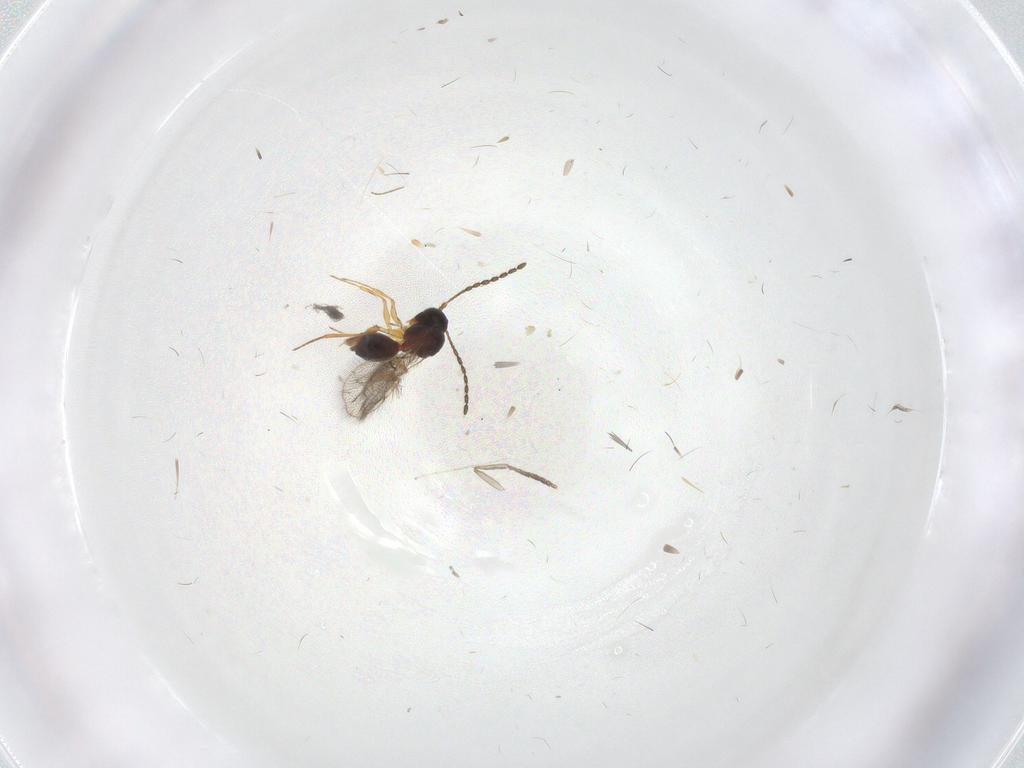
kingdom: Animalia
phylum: Arthropoda
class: Insecta
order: Hymenoptera
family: Figitidae
